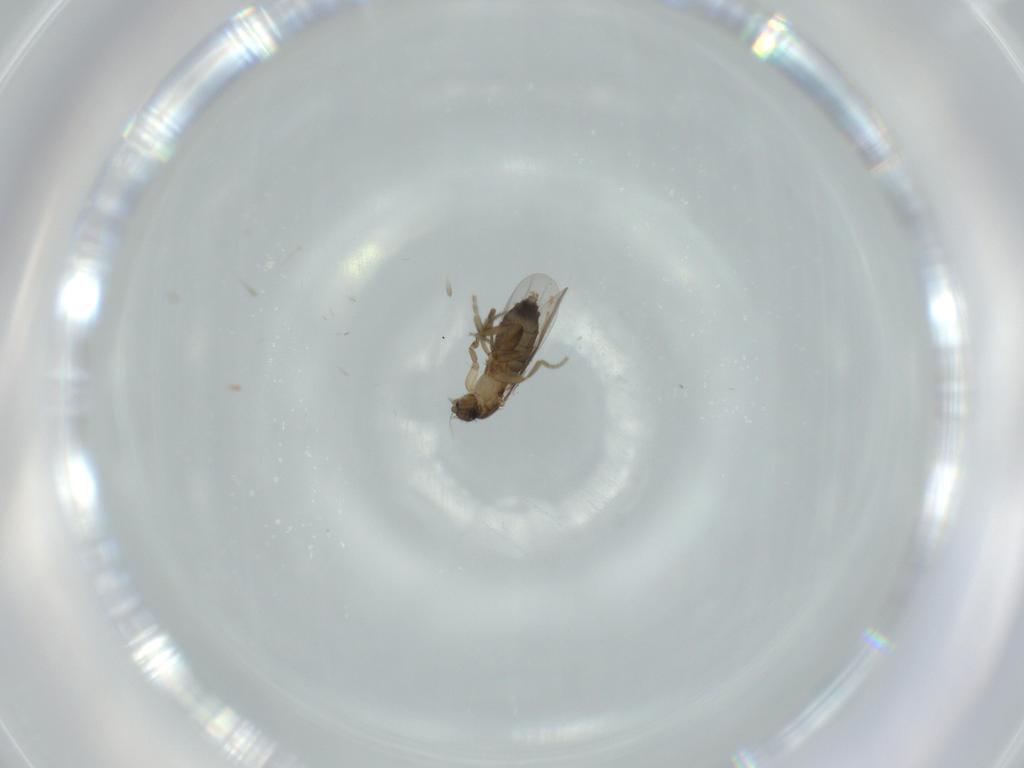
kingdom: Animalia
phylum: Arthropoda
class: Insecta
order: Diptera
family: Cecidomyiidae
